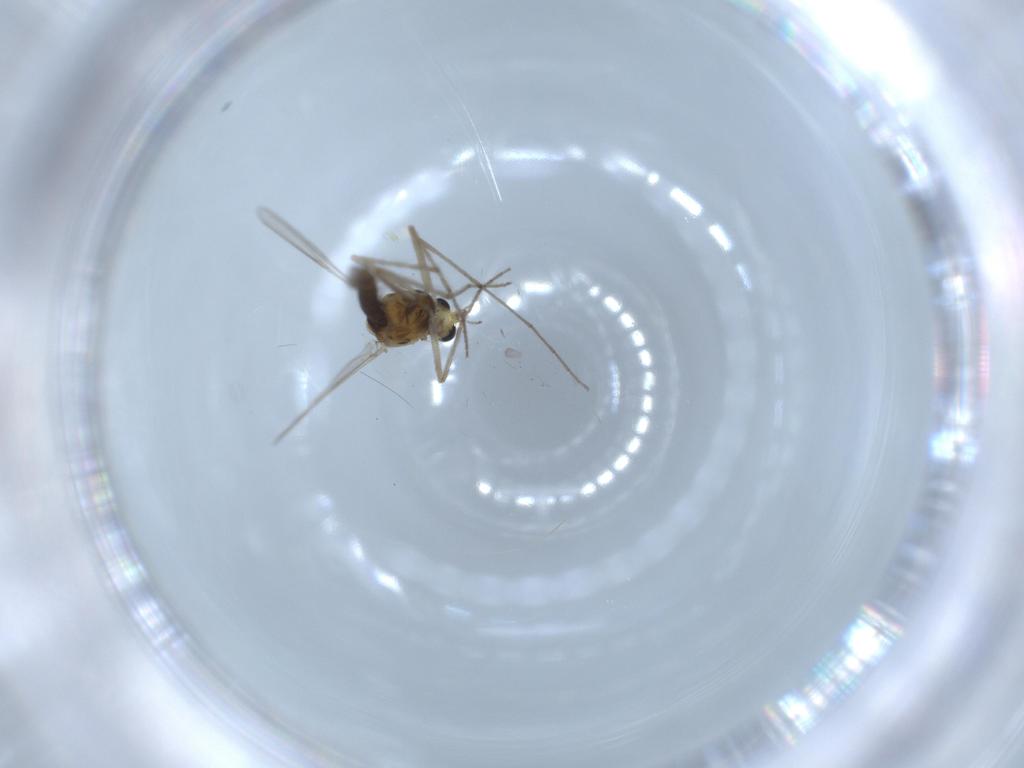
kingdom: Animalia
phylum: Arthropoda
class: Insecta
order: Diptera
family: Chironomidae
